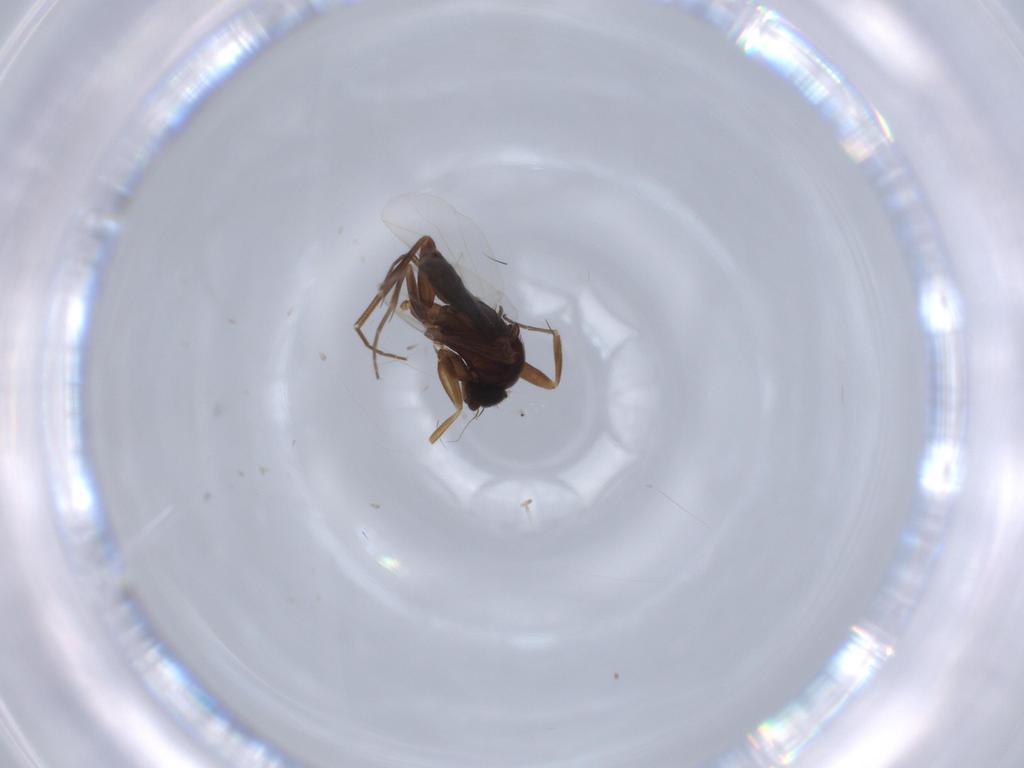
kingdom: Animalia
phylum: Arthropoda
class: Insecta
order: Diptera
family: Phoridae
